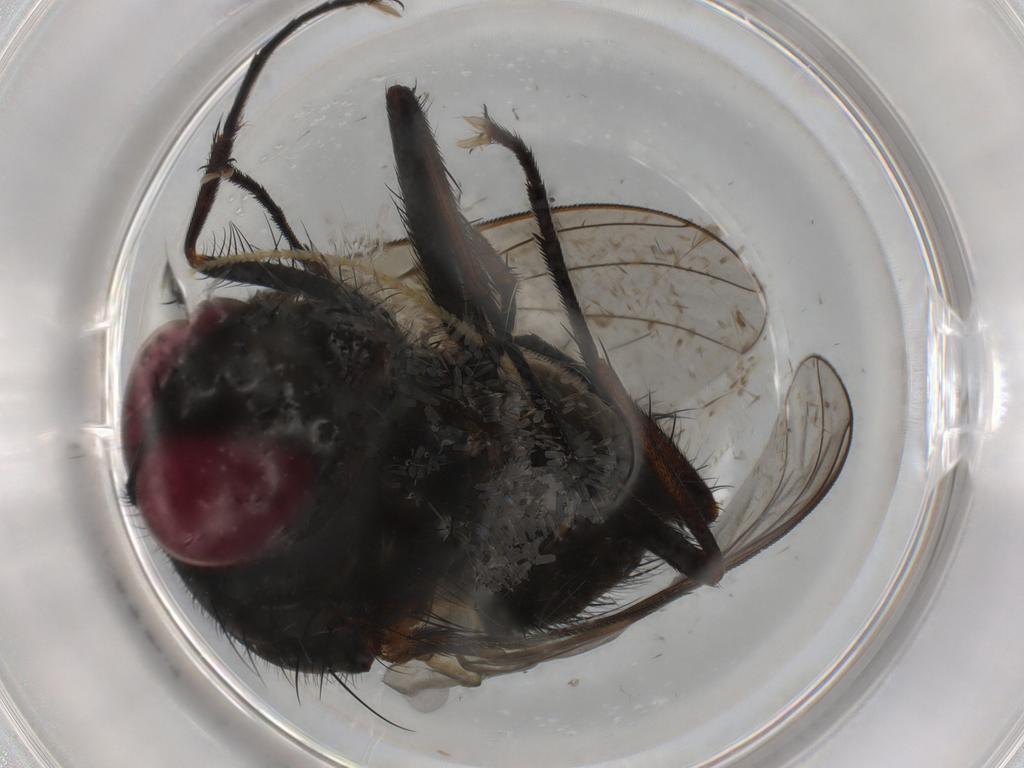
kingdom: Animalia
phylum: Arthropoda
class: Insecta
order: Diptera
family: Muscidae
